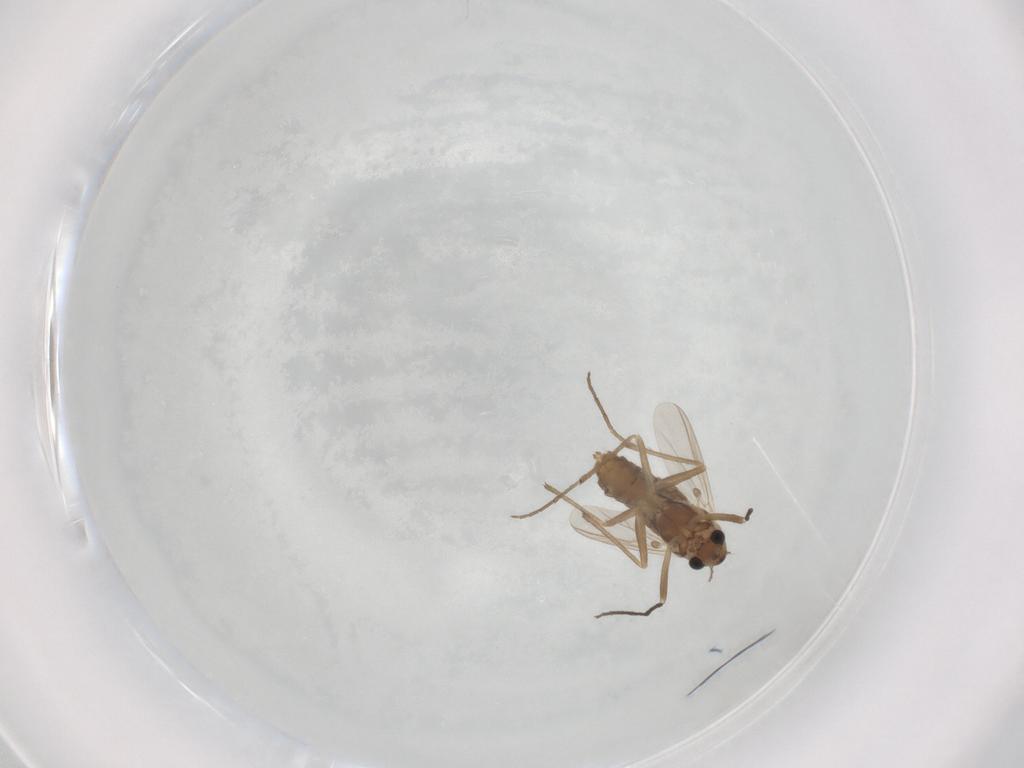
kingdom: Animalia
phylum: Arthropoda
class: Insecta
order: Diptera
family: Chironomidae
